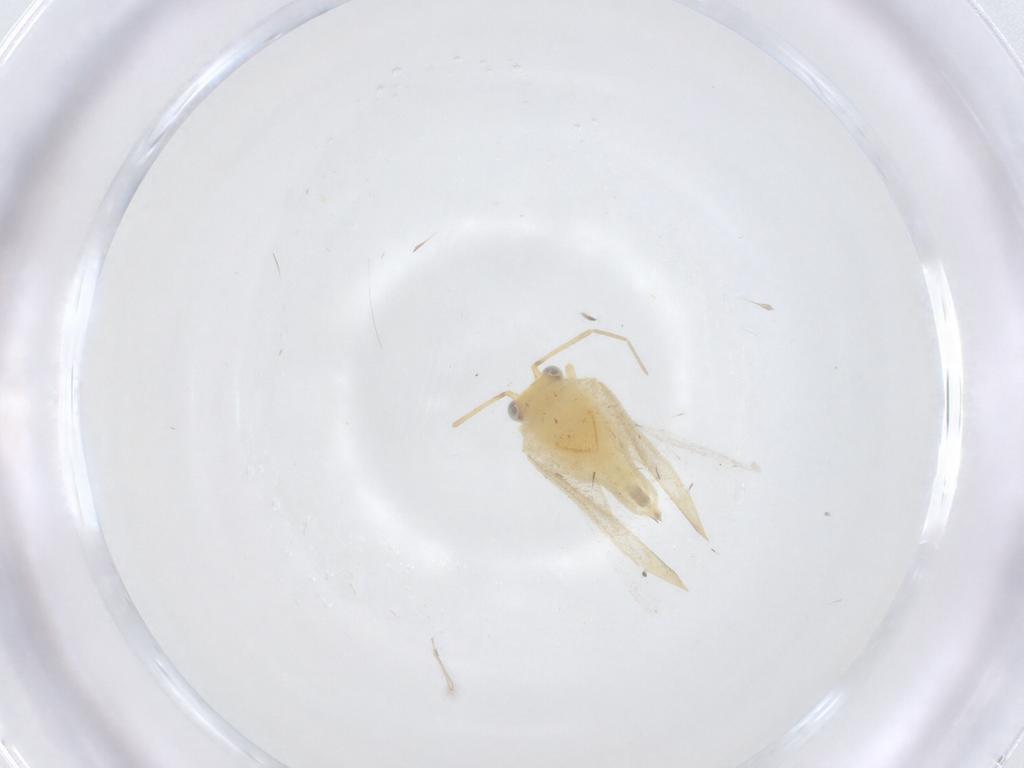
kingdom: Animalia
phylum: Arthropoda
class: Insecta
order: Hemiptera
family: Miridae
